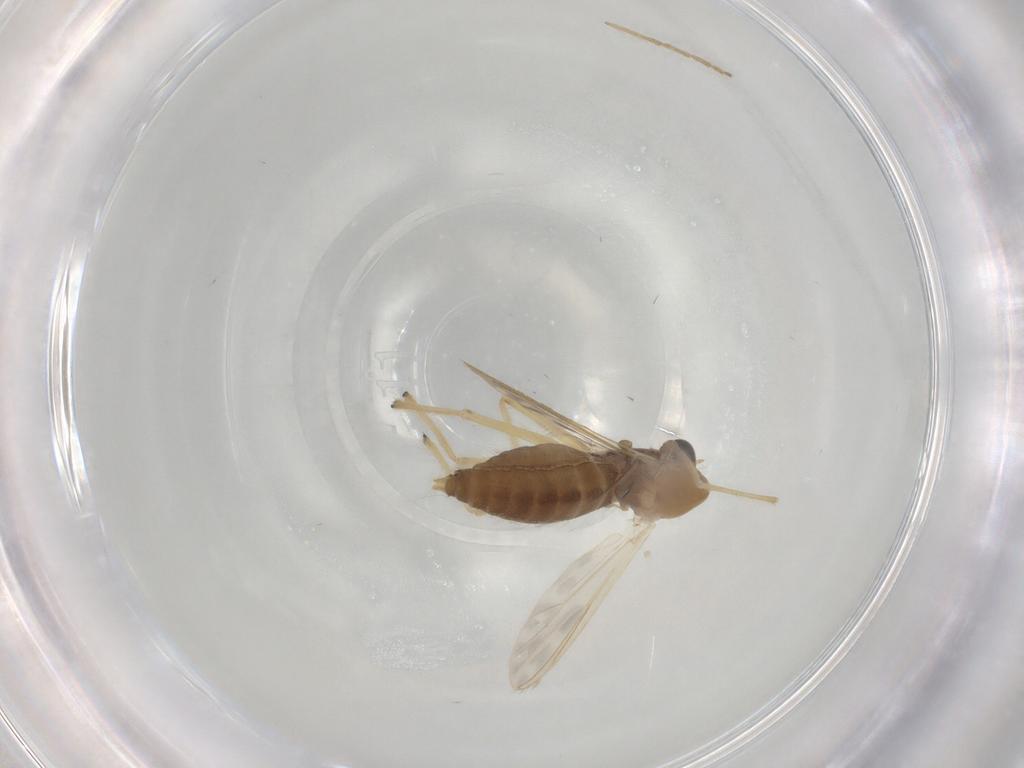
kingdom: Animalia
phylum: Arthropoda
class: Insecta
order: Diptera
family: Chironomidae
